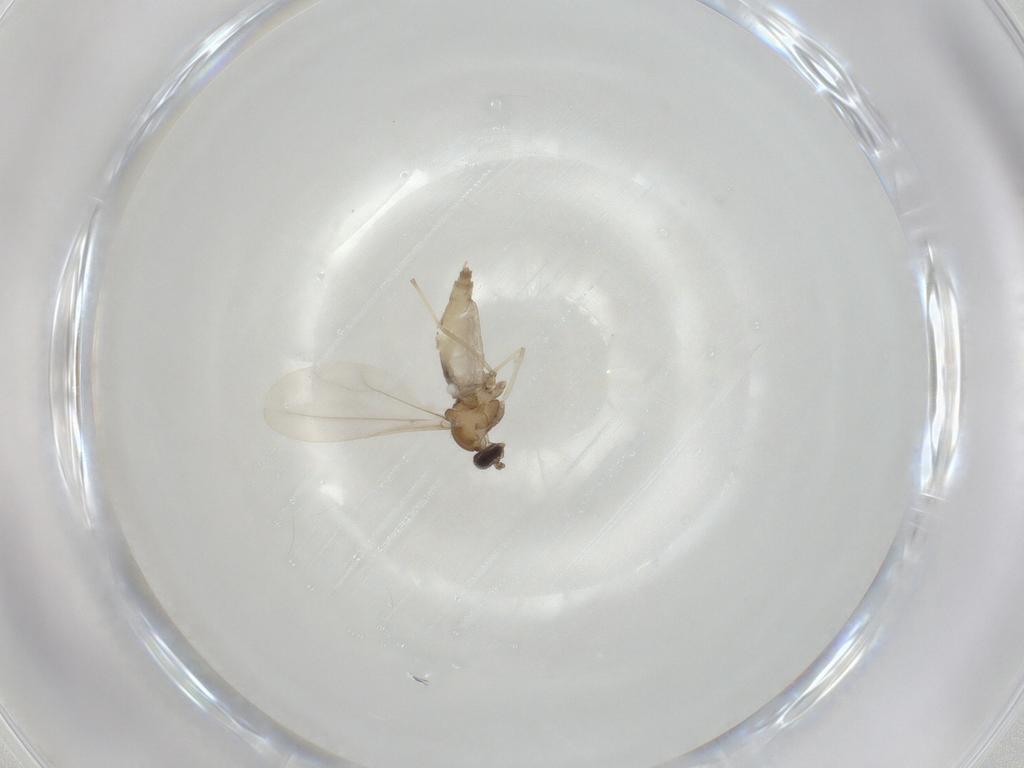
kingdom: Animalia
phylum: Arthropoda
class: Insecta
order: Diptera
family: Cecidomyiidae
